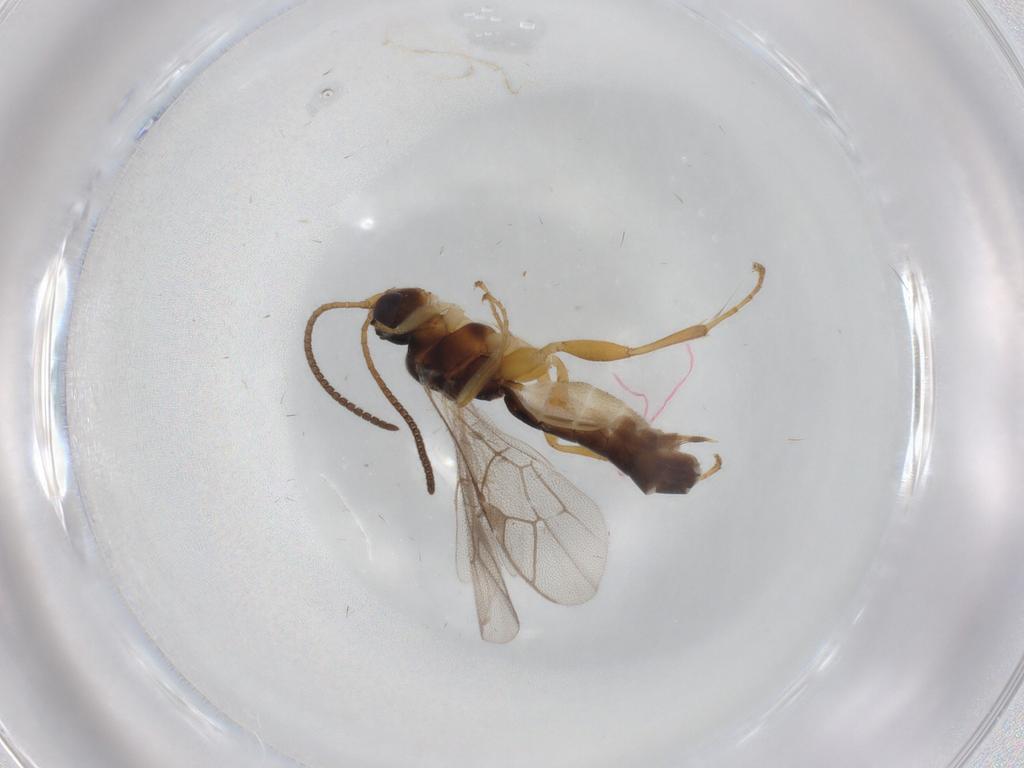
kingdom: Animalia
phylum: Arthropoda
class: Insecta
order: Hymenoptera
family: Ichneumonidae
